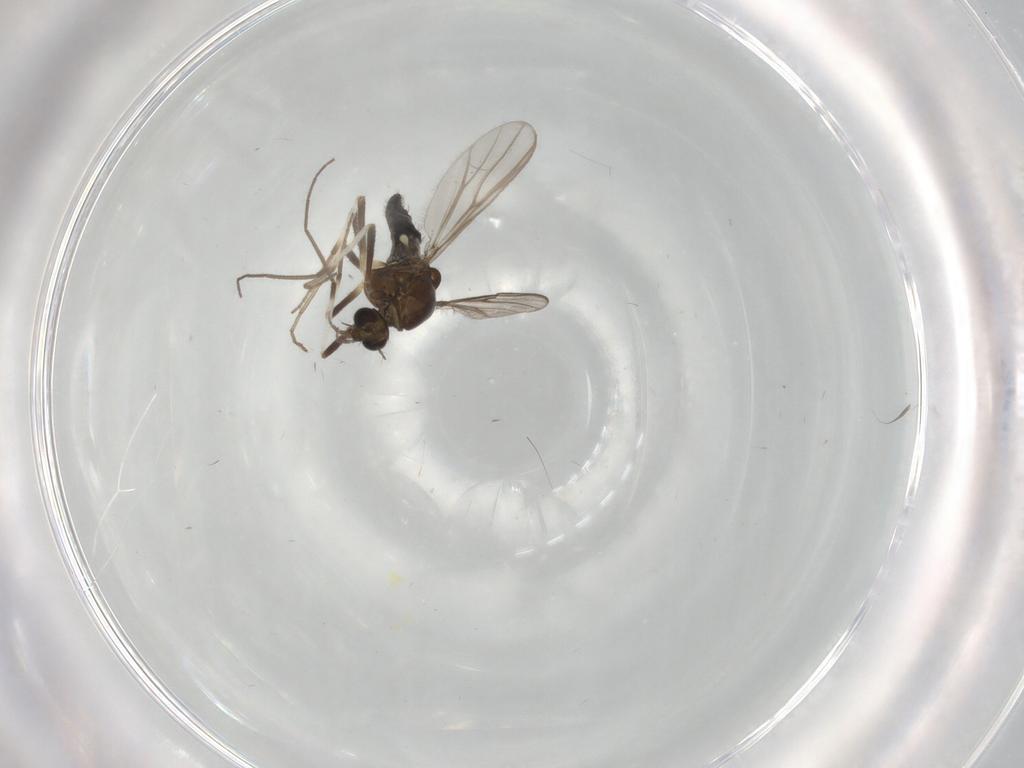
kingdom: Animalia
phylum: Arthropoda
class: Insecta
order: Diptera
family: Chironomidae
